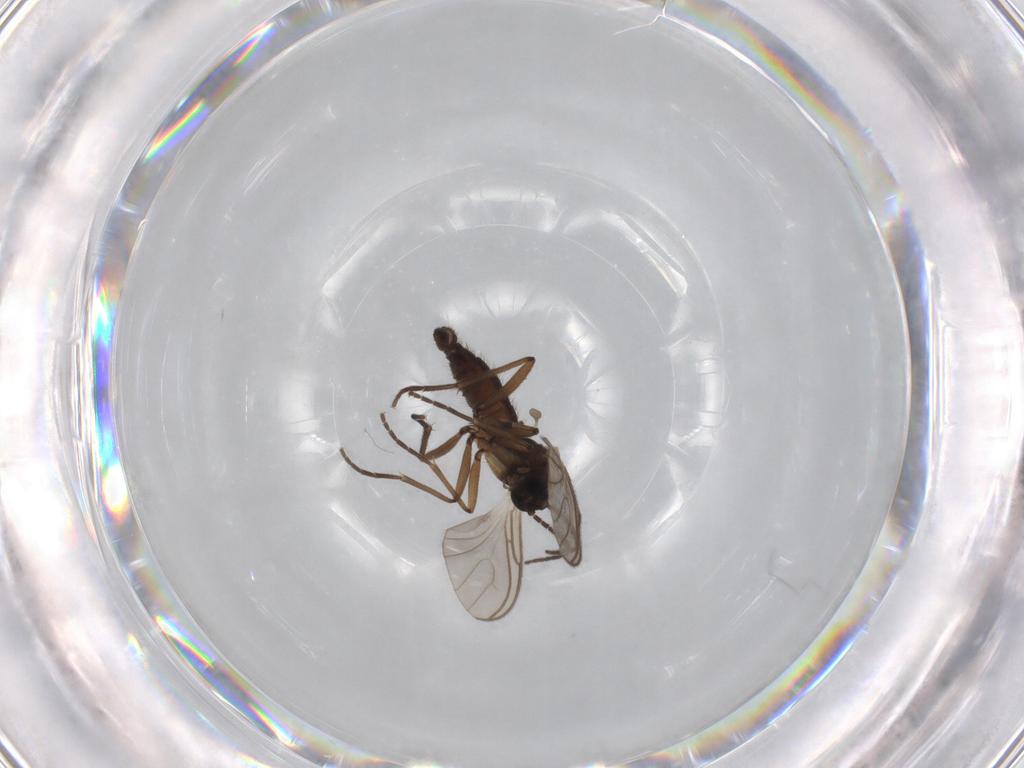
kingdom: Animalia
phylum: Arthropoda
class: Insecta
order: Diptera
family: Sciaridae
